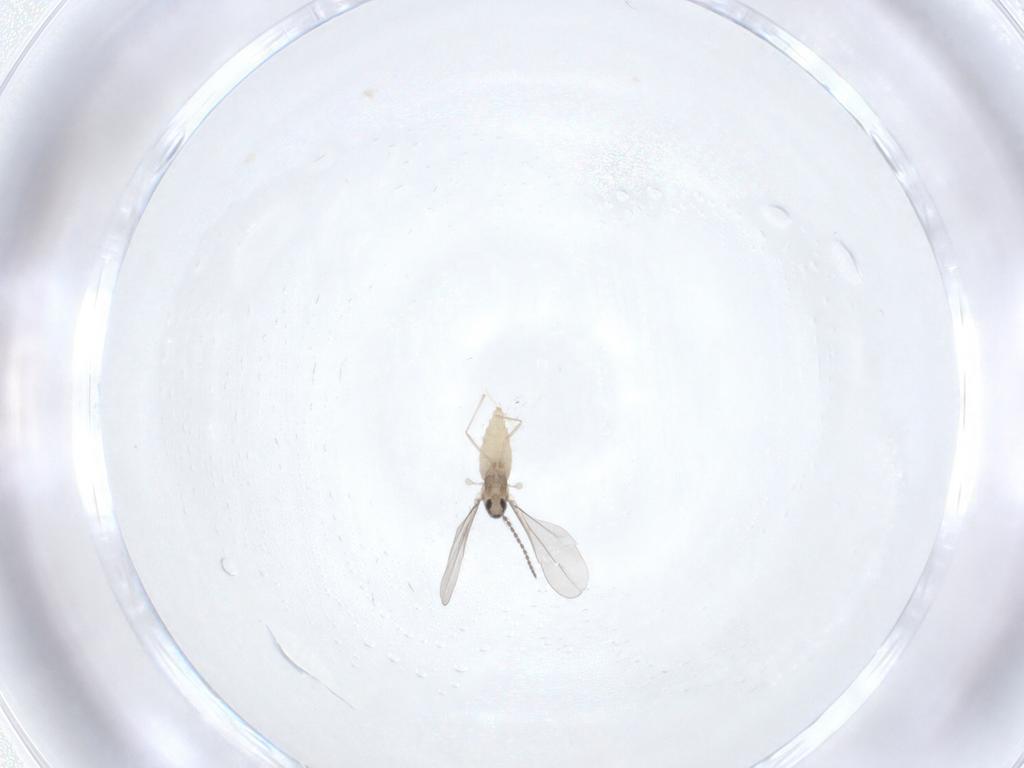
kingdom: Animalia
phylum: Arthropoda
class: Insecta
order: Diptera
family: Cecidomyiidae
